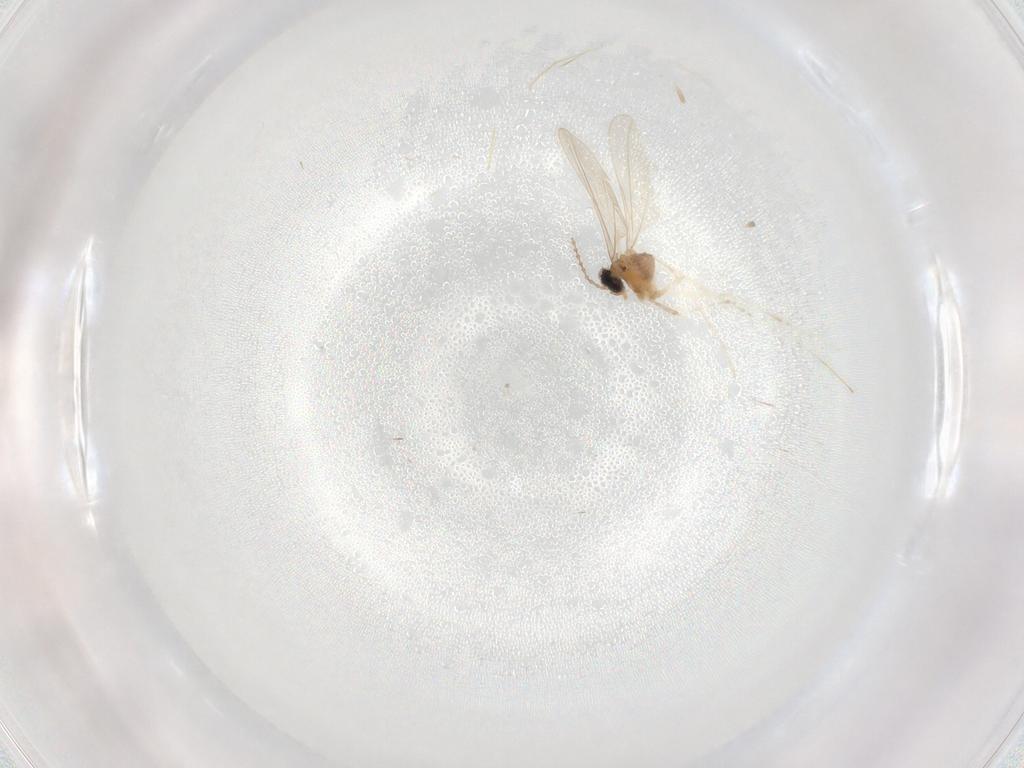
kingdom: Animalia
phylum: Arthropoda
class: Insecta
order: Diptera
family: Cecidomyiidae
